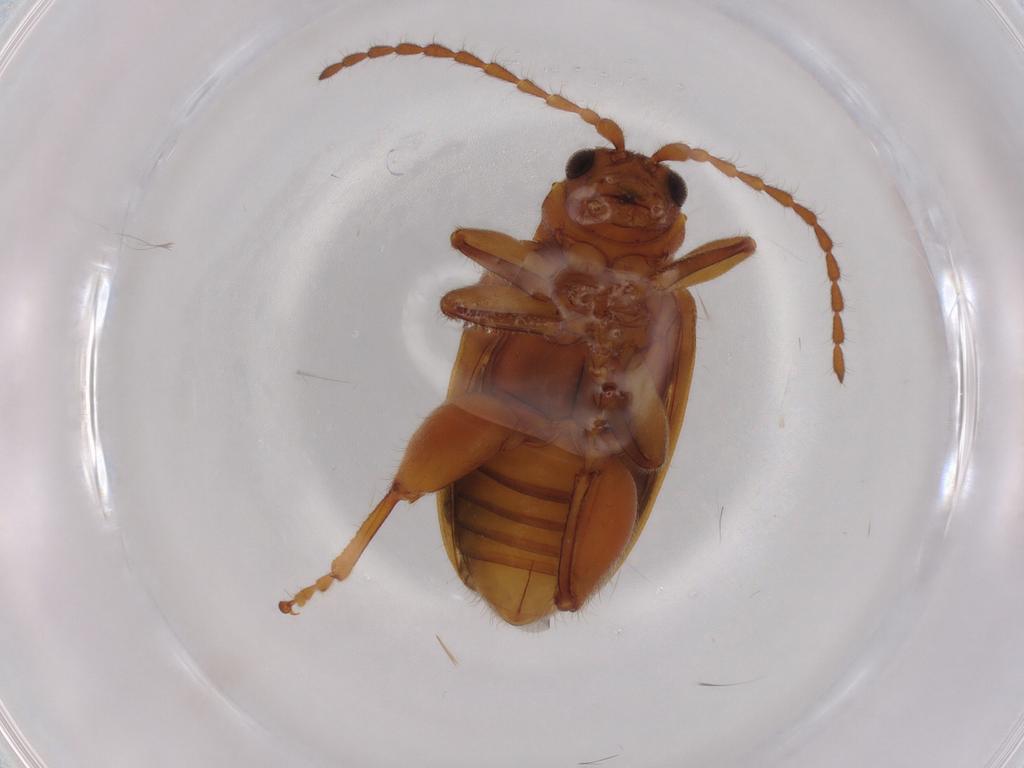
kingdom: Animalia
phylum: Arthropoda
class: Insecta
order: Coleoptera
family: Chrysomelidae
